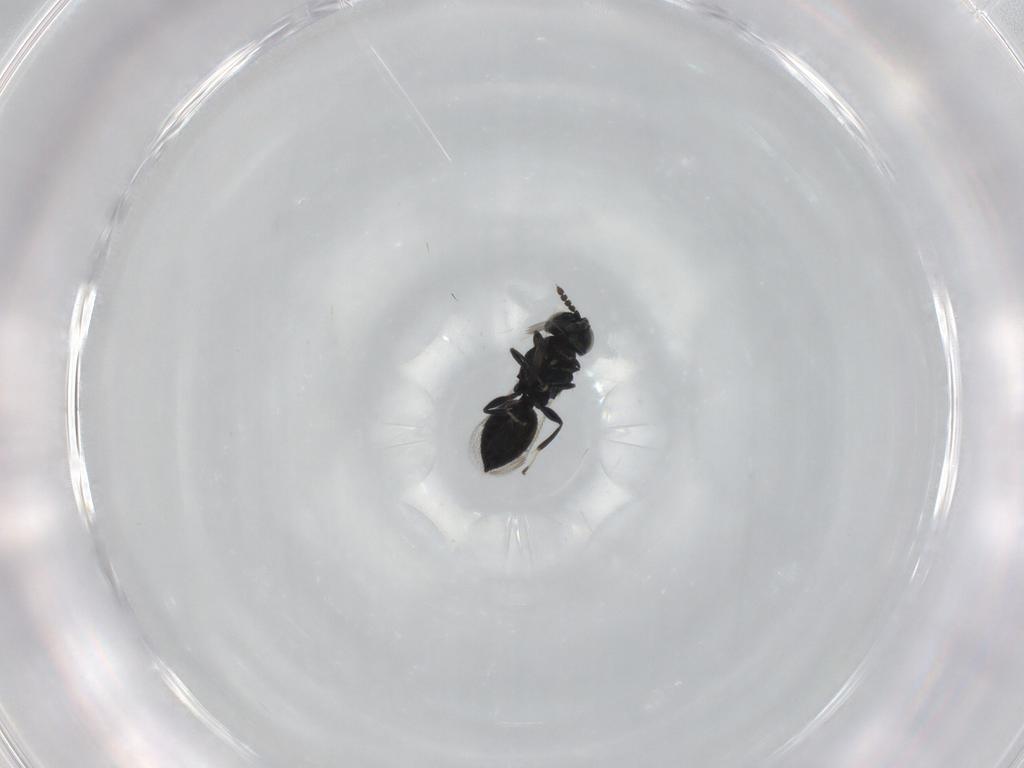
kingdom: Animalia
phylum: Arthropoda
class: Insecta
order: Hymenoptera
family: Eulophidae
